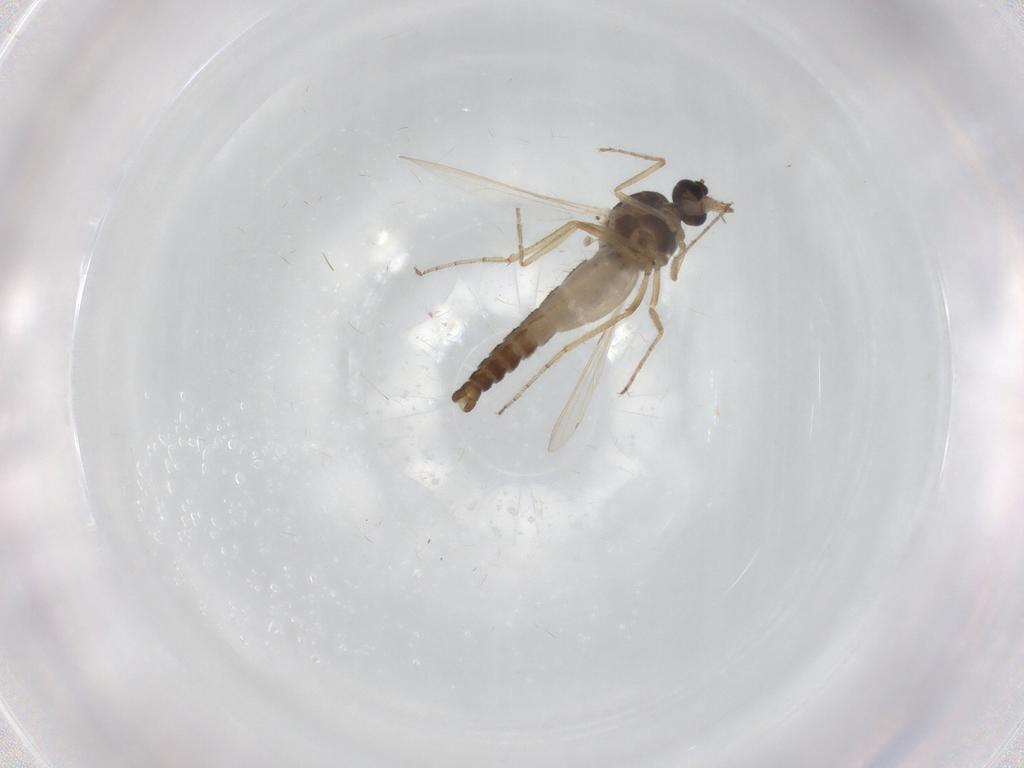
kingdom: Animalia
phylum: Arthropoda
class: Insecta
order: Diptera
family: Ceratopogonidae
